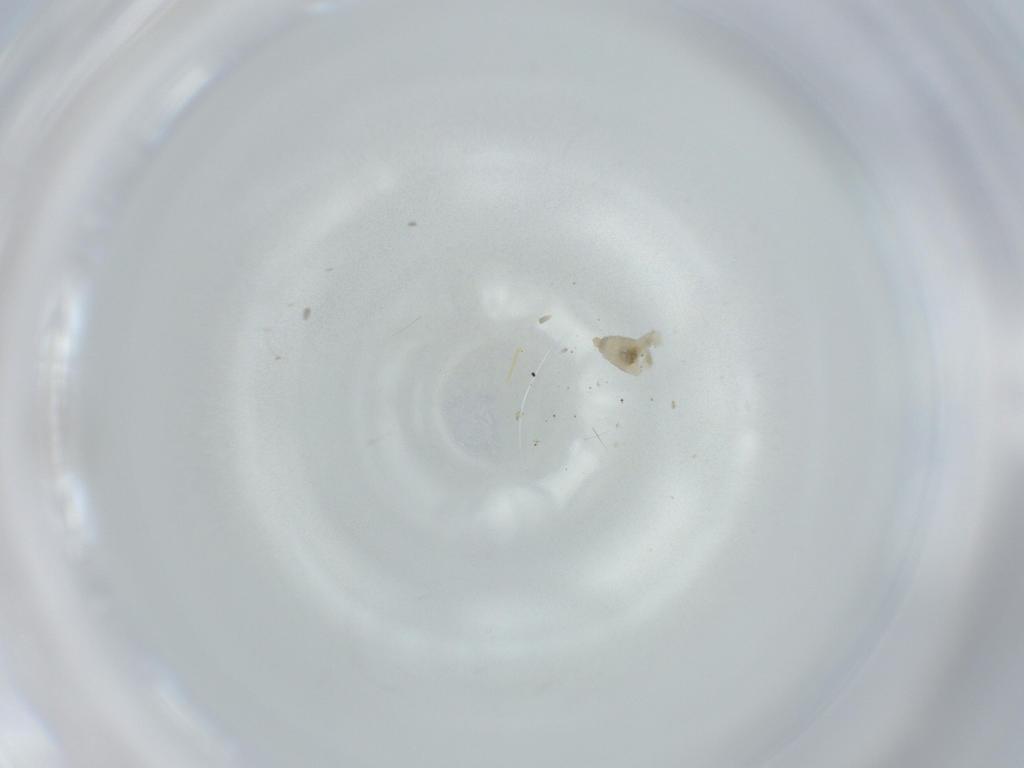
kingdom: Animalia
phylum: Arthropoda
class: Insecta
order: Diptera
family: Cecidomyiidae
